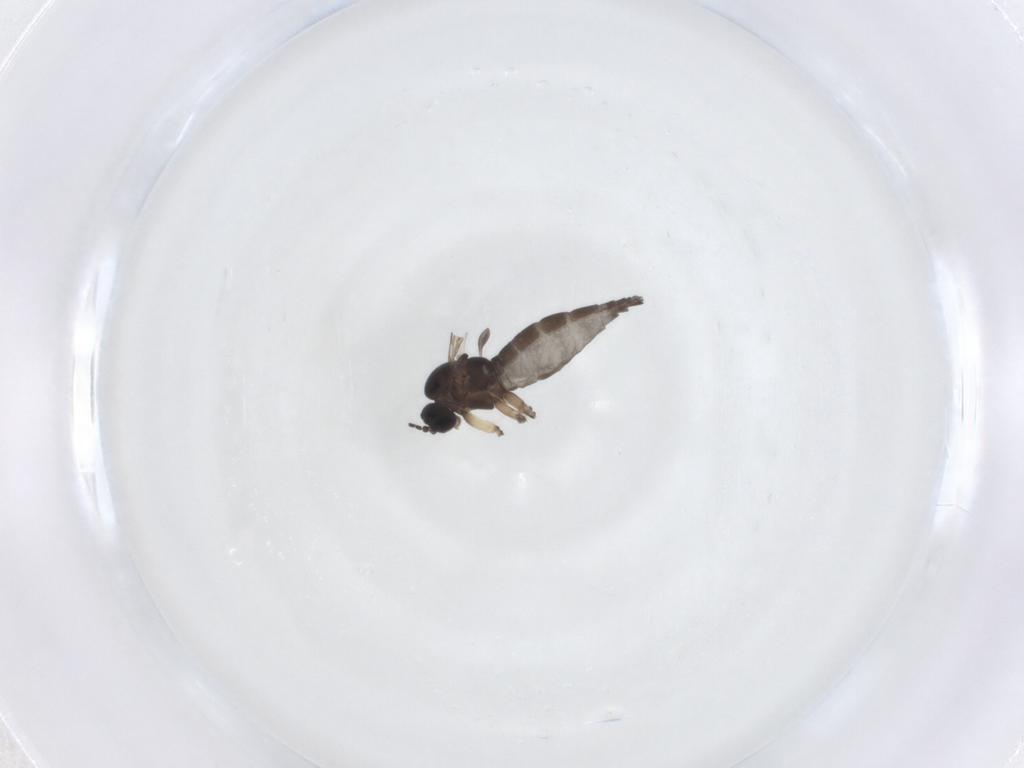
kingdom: Animalia
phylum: Arthropoda
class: Insecta
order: Diptera
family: Sciaridae
